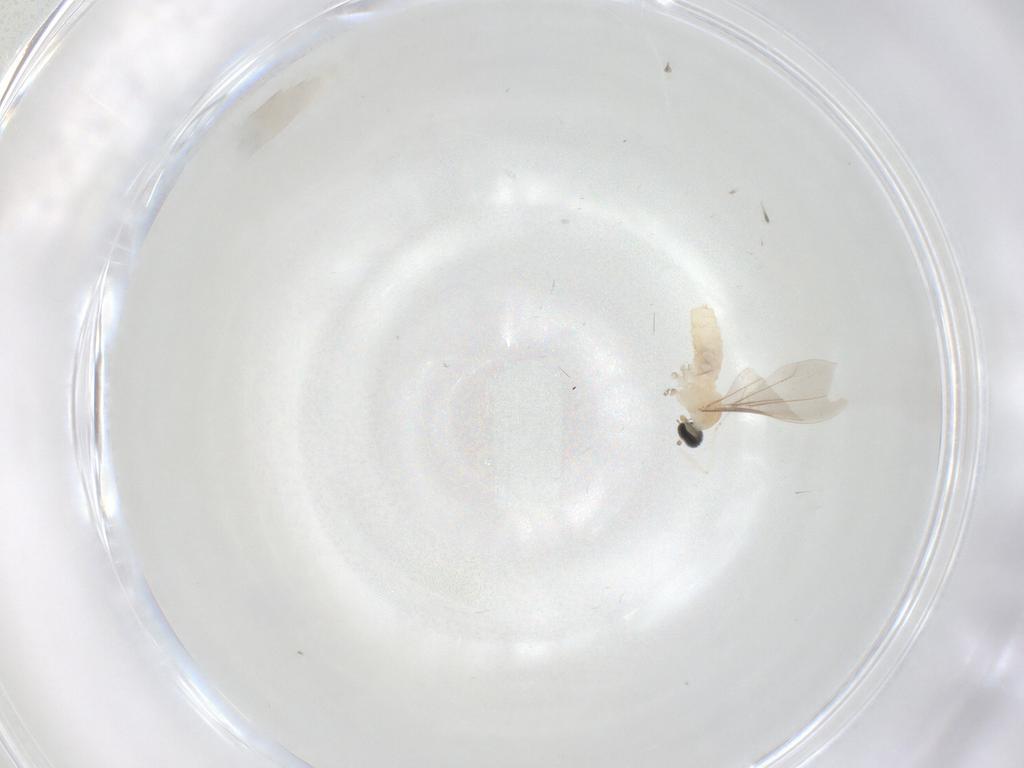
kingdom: Animalia
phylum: Arthropoda
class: Insecta
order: Diptera
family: Cecidomyiidae
